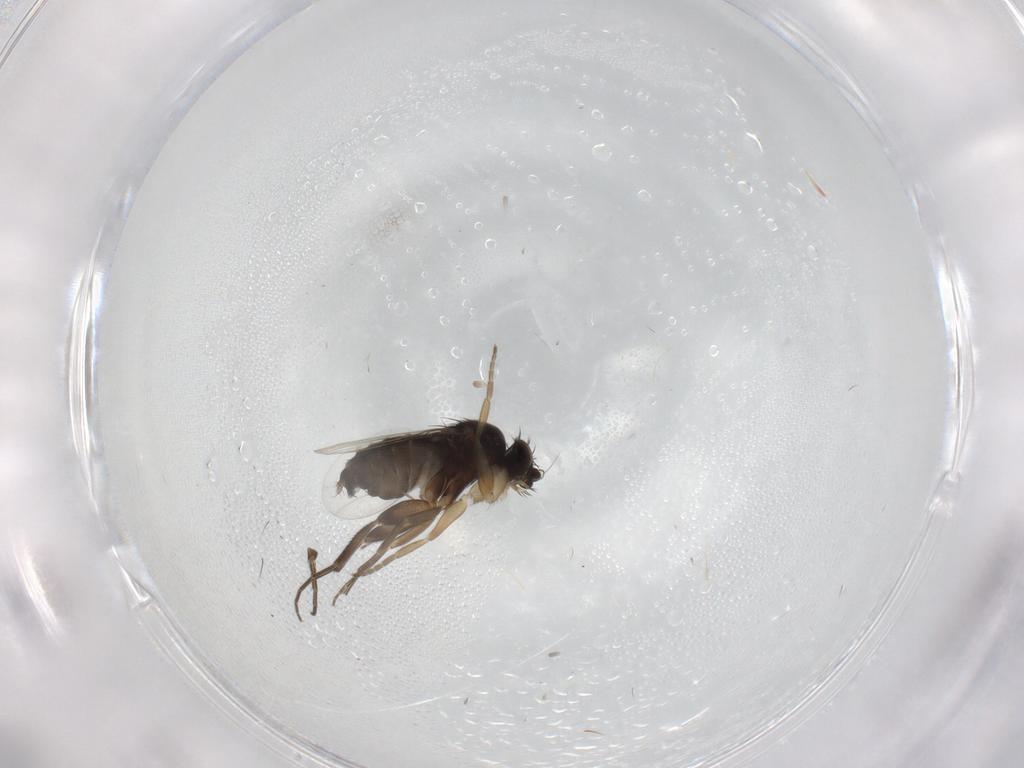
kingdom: Animalia
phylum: Arthropoda
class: Insecta
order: Diptera
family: Phoridae
